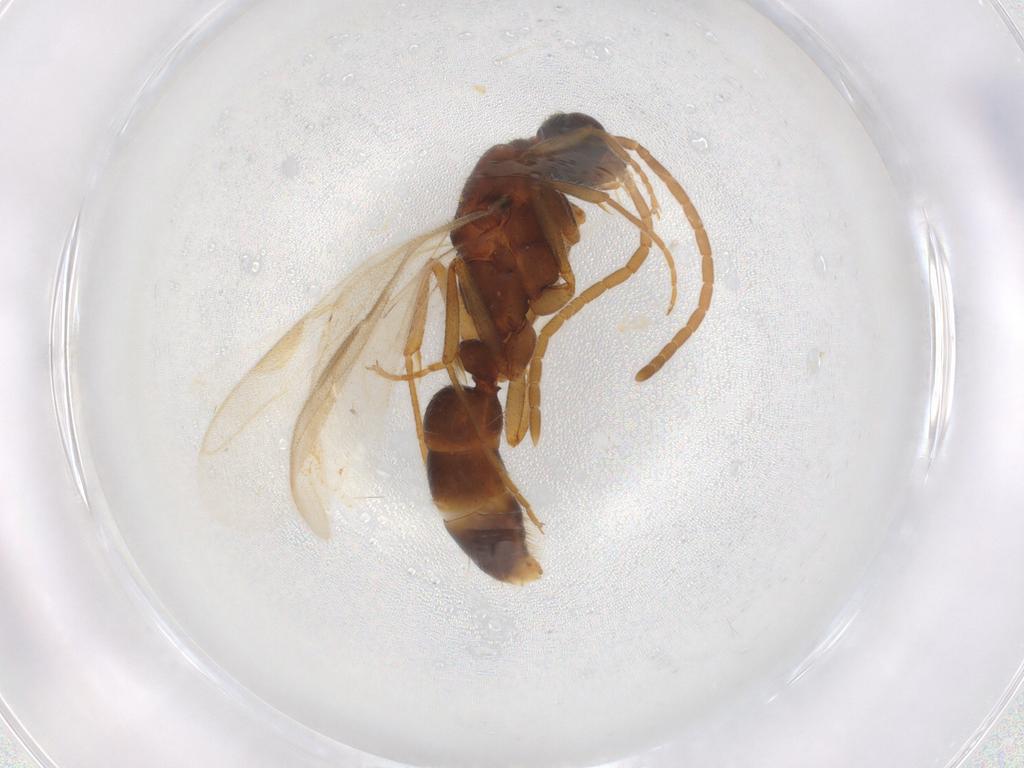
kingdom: Animalia
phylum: Arthropoda
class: Insecta
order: Hymenoptera
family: Formicidae
